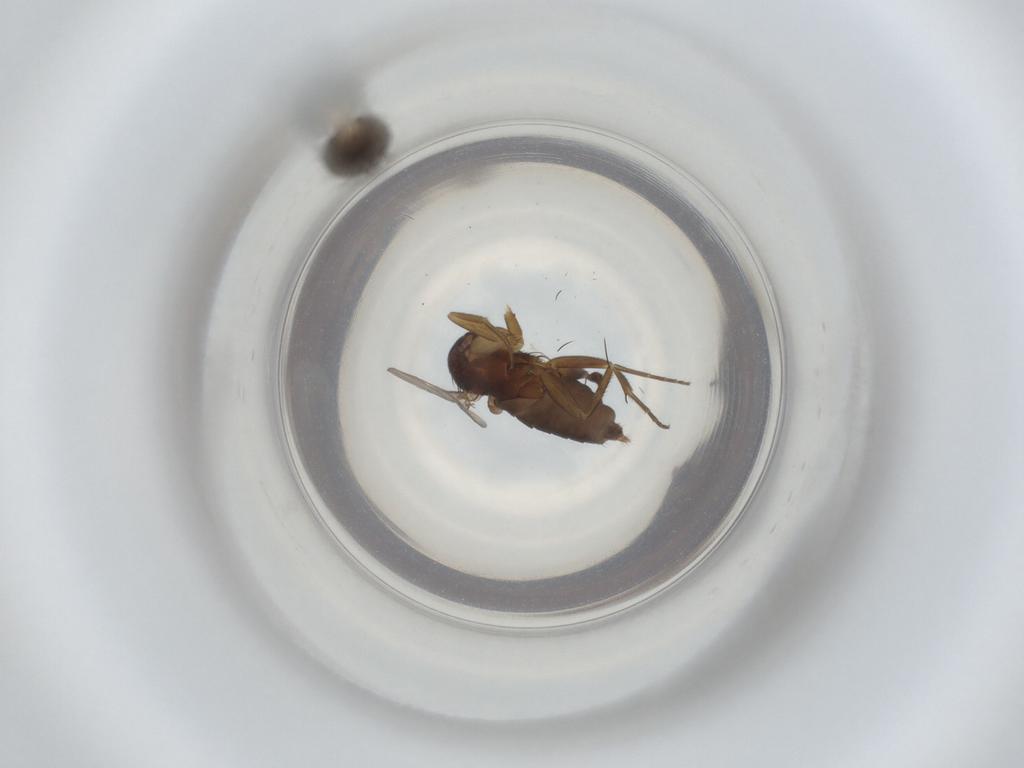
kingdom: Animalia
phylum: Arthropoda
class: Insecta
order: Diptera
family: Phoridae
